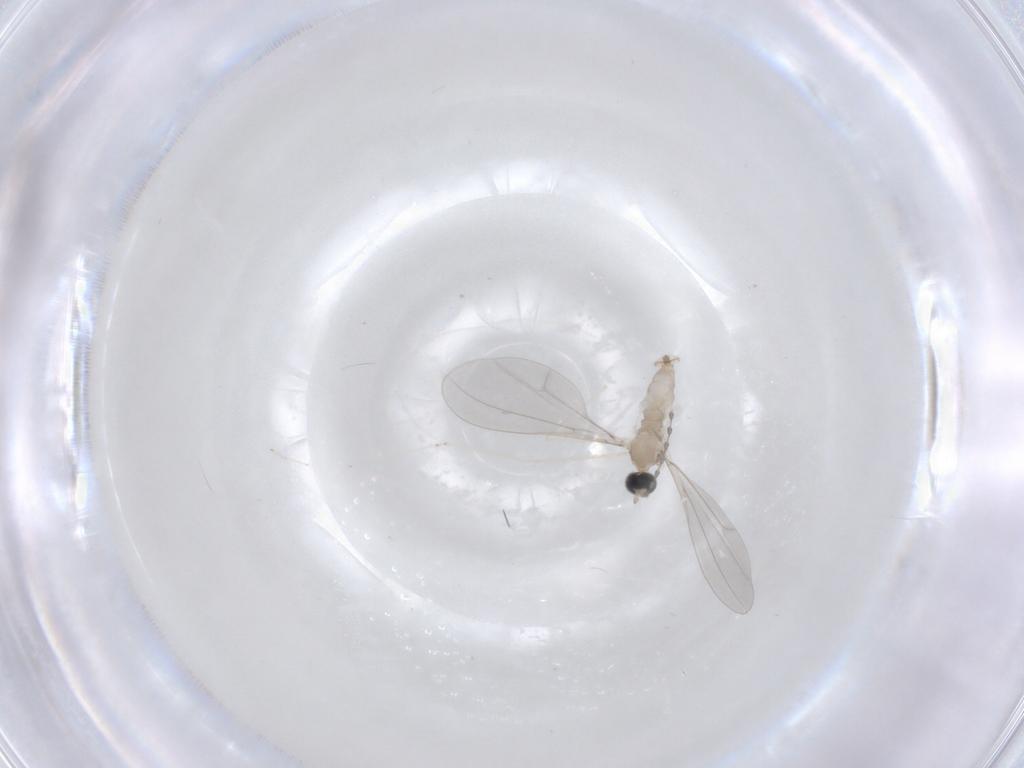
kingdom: Animalia
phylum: Arthropoda
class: Insecta
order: Diptera
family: Cecidomyiidae
